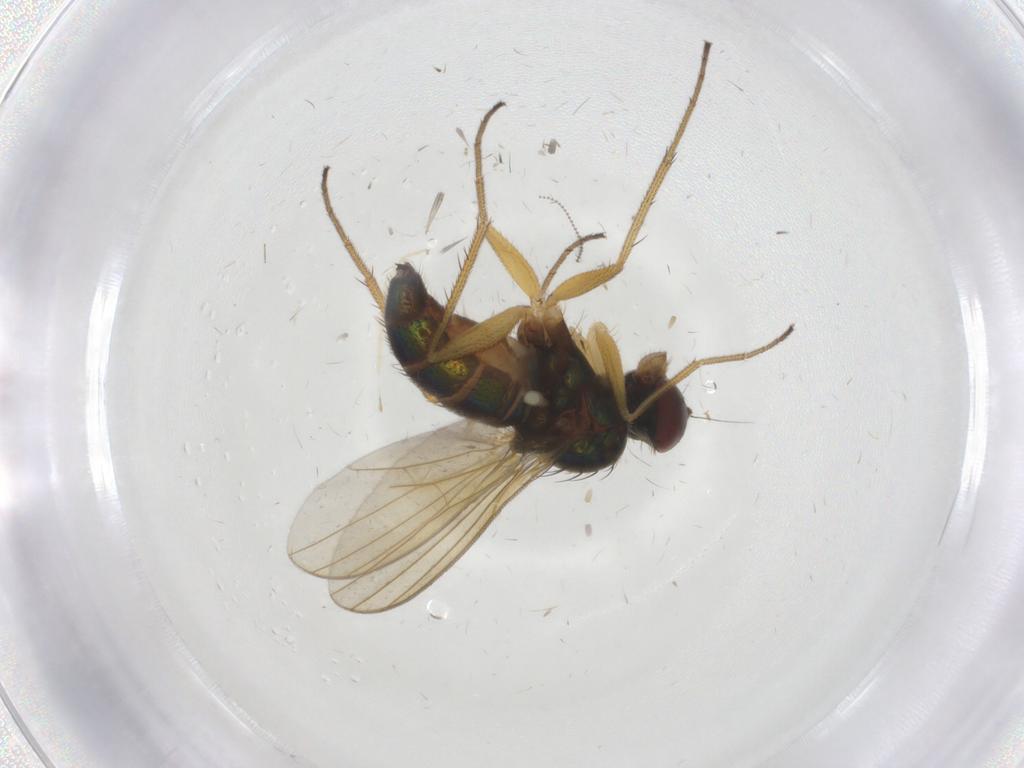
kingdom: Animalia
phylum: Arthropoda
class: Insecta
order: Diptera
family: Dolichopodidae
